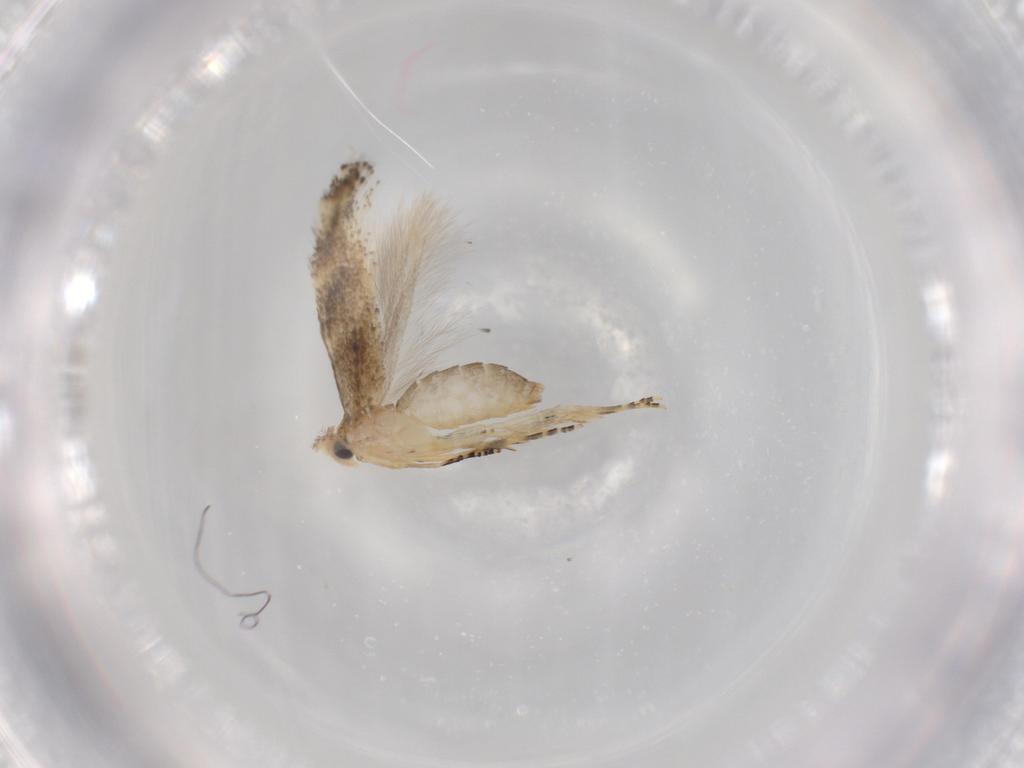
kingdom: Animalia
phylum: Arthropoda
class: Insecta
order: Lepidoptera
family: Bucculatricidae
